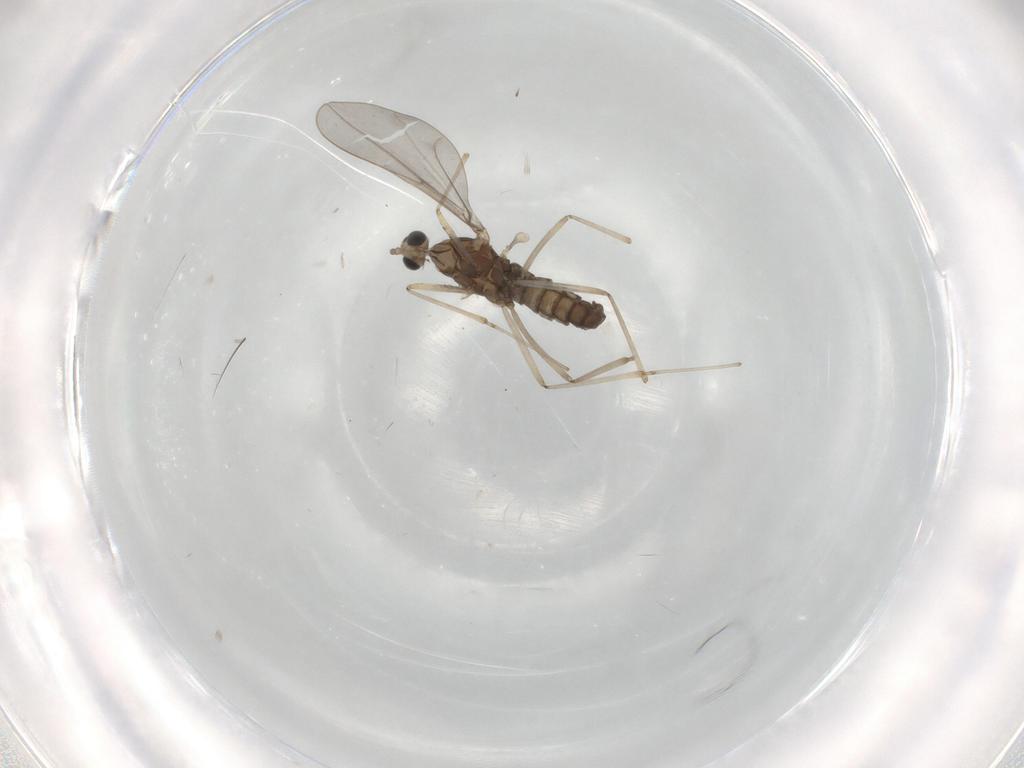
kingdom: Animalia
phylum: Arthropoda
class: Insecta
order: Diptera
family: Cecidomyiidae
